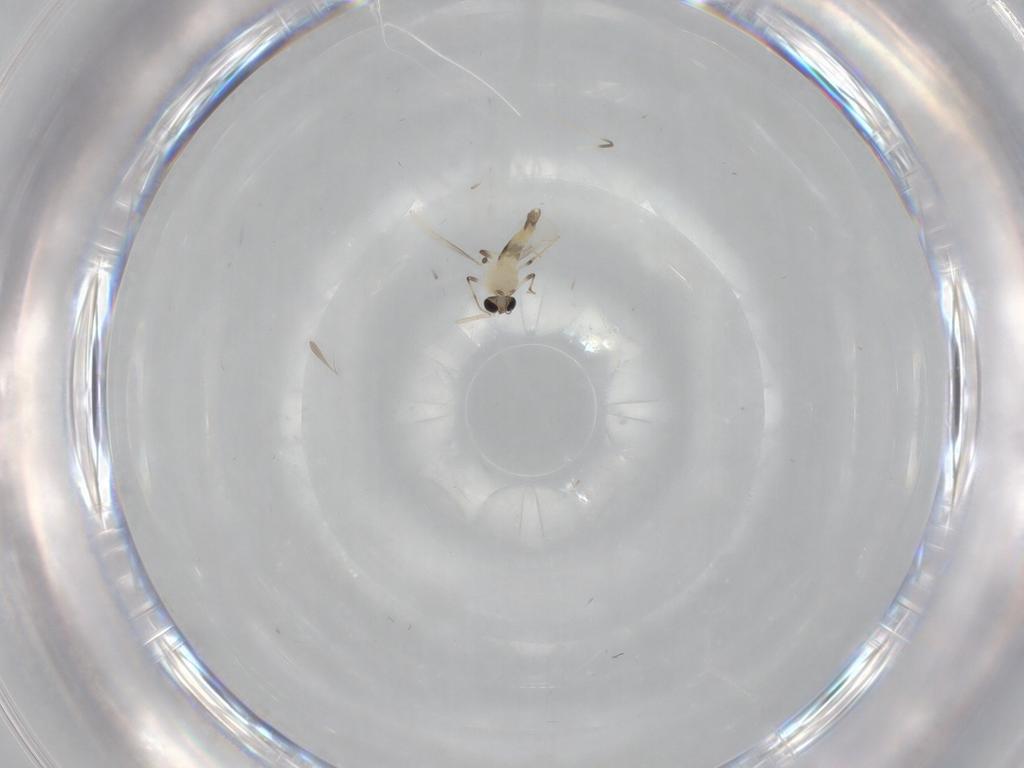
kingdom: Animalia
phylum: Arthropoda
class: Insecta
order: Diptera
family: Chironomidae
